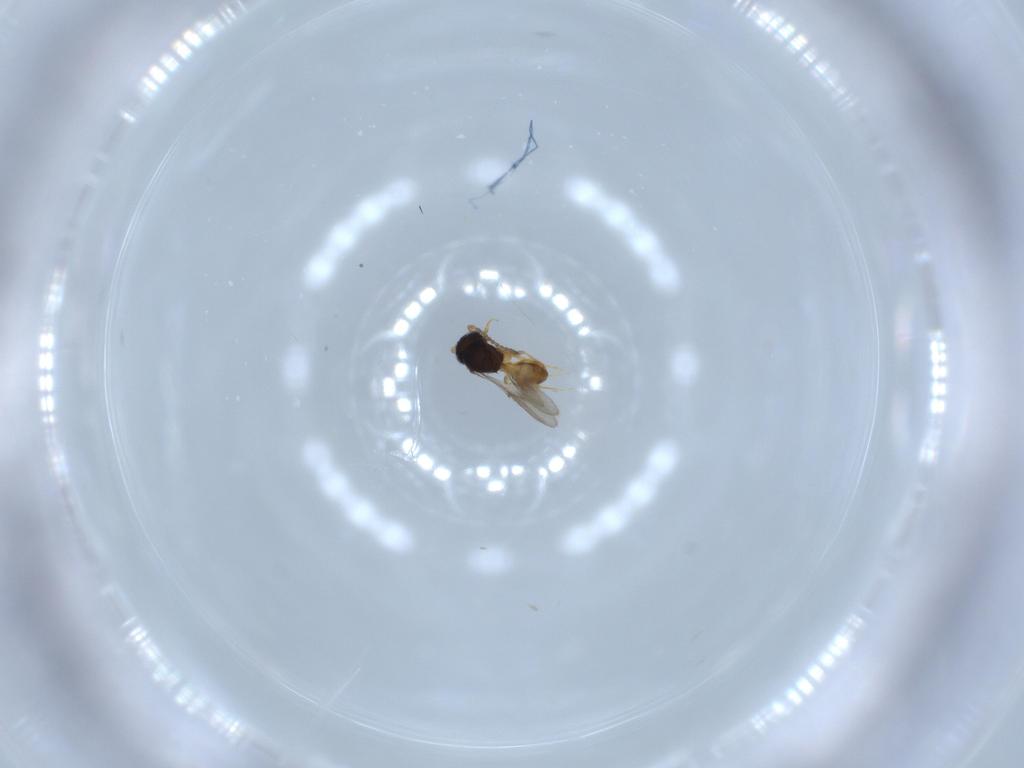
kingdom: Animalia
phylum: Arthropoda
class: Insecta
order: Hymenoptera
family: Scelionidae
